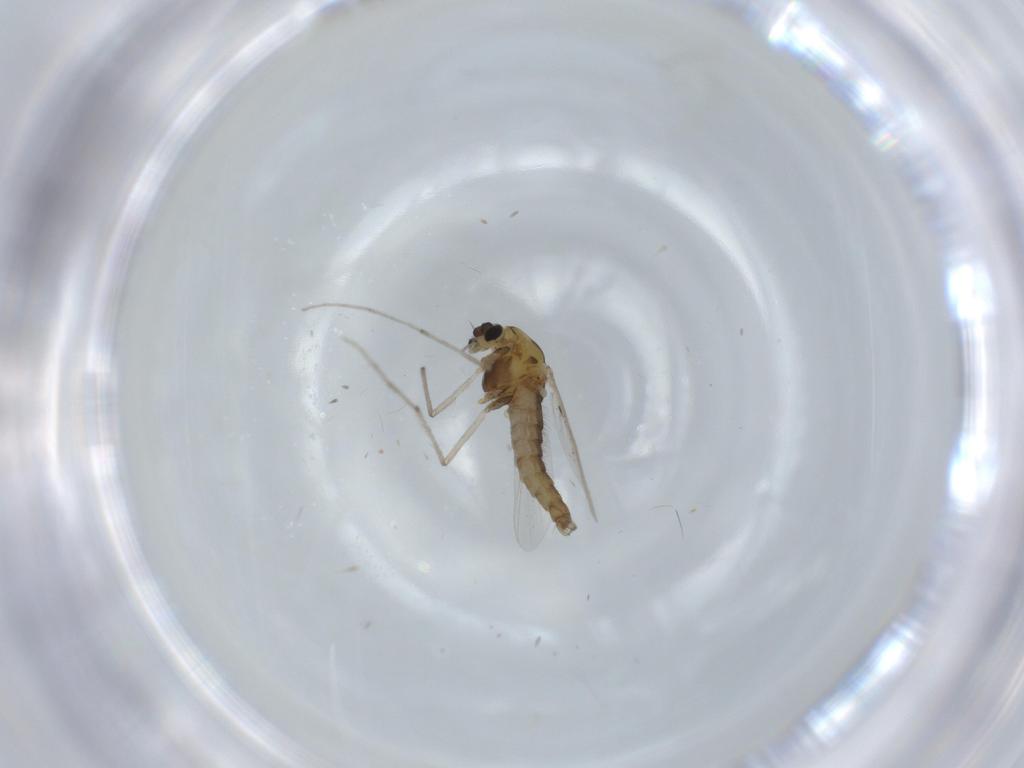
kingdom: Animalia
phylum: Arthropoda
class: Insecta
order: Diptera
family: Chironomidae
